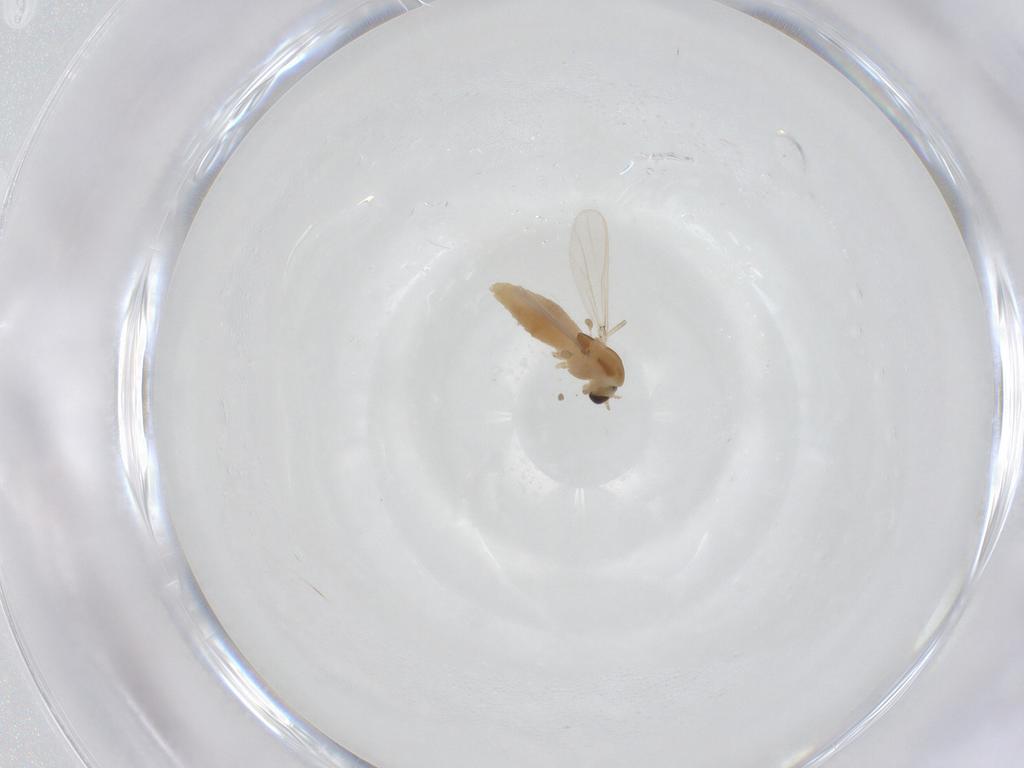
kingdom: Animalia
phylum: Arthropoda
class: Insecta
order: Diptera
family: Chironomidae
